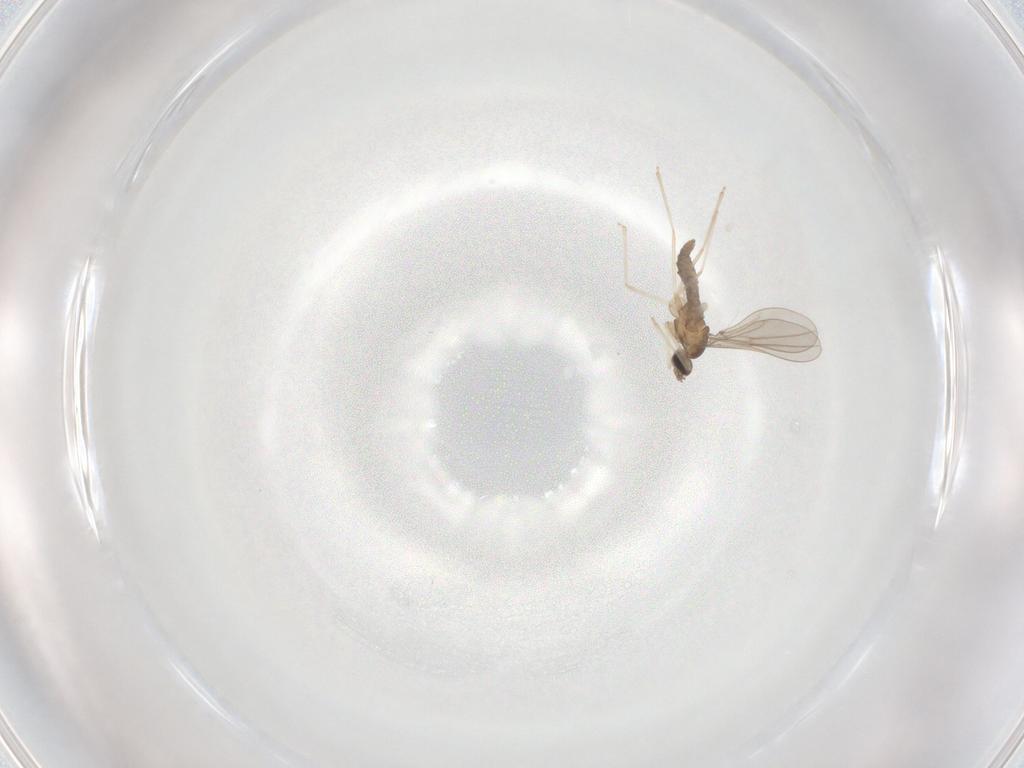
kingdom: Animalia
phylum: Arthropoda
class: Insecta
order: Diptera
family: Cecidomyiidae
